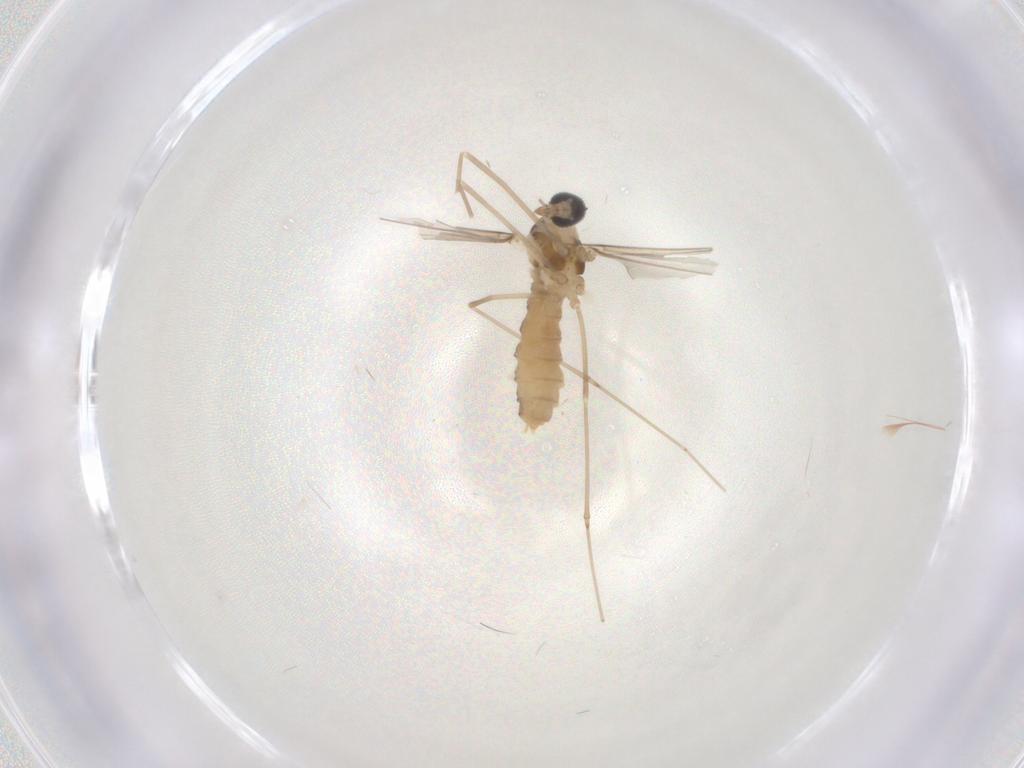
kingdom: Animalia
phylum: Arthropoda
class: Insecta
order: Diptera
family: Cecidomyiidae
